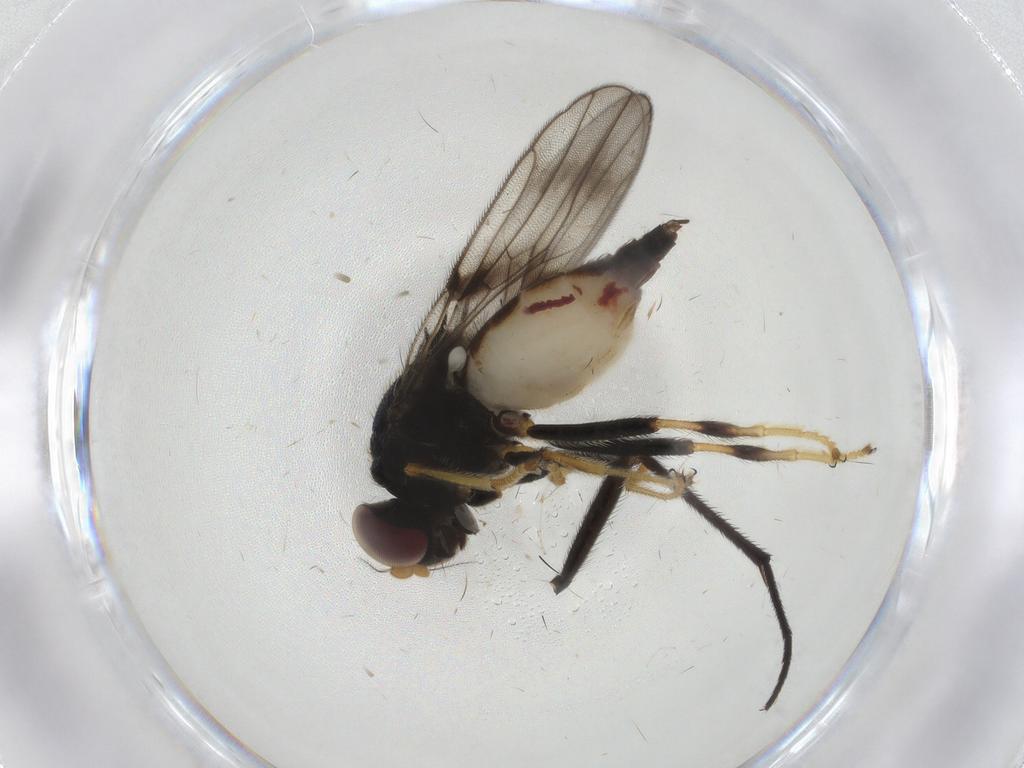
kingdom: Animalia
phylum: Arthropoda
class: Insecta
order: Diptera
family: Chloropidae
